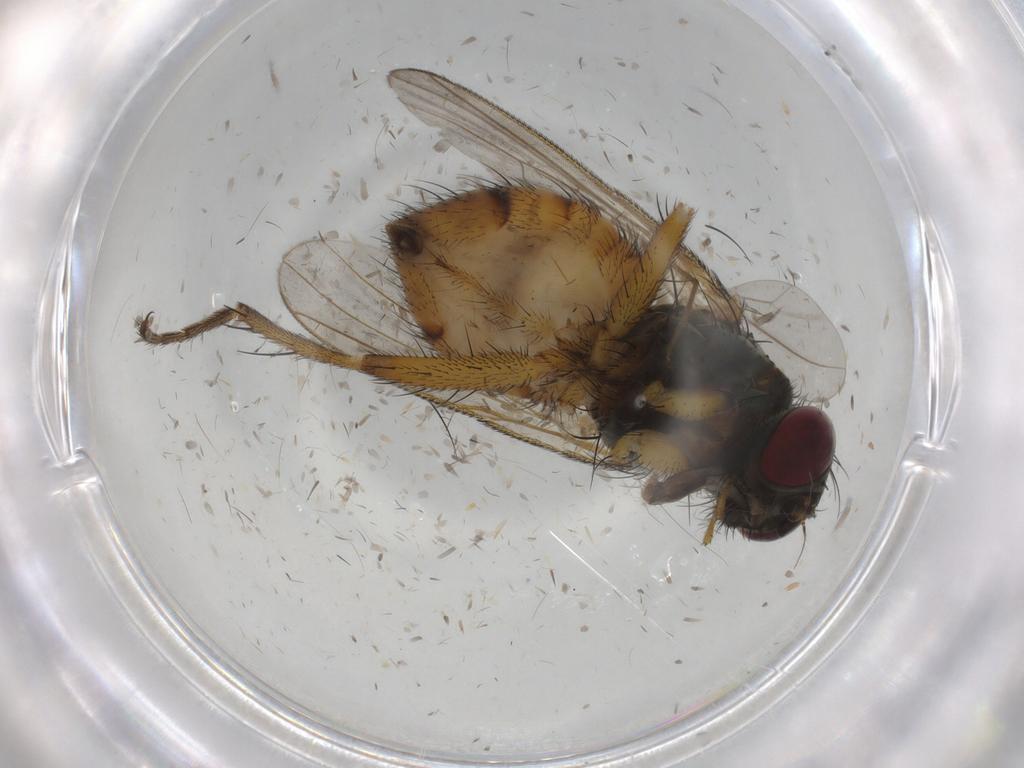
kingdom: Animalia
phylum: Arthropoda
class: Insecta
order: Diptera
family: Muscidae
